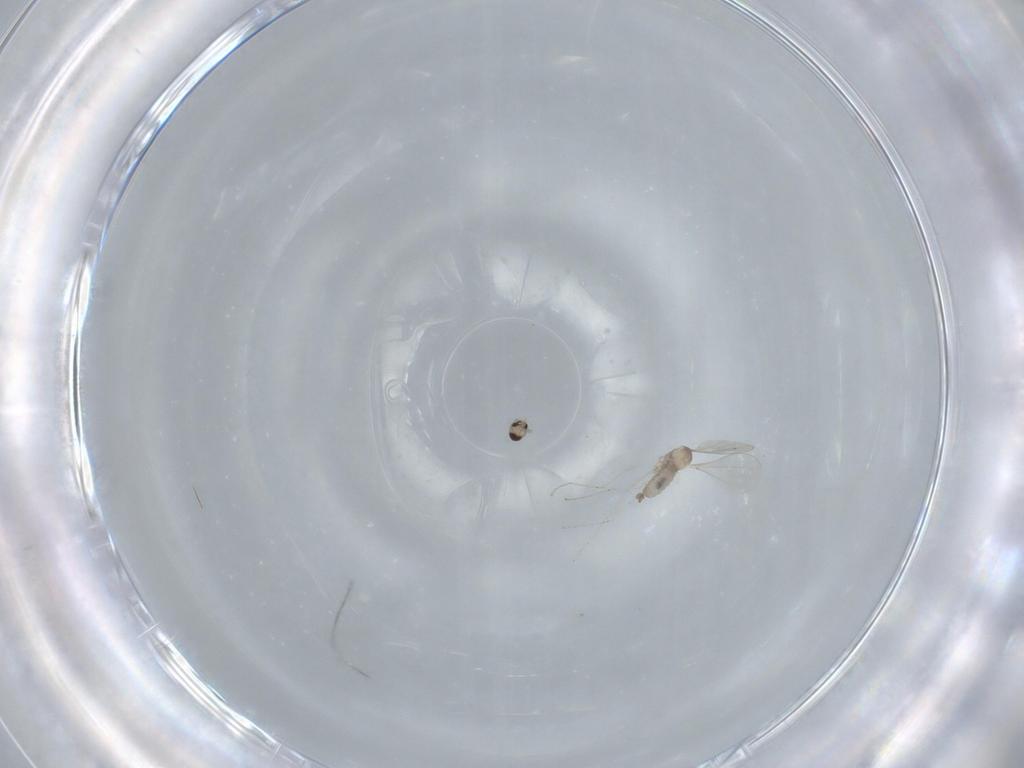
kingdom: Animalia
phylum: Arthropoda
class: Insecta
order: Diptera
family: Cecidomyiidae
